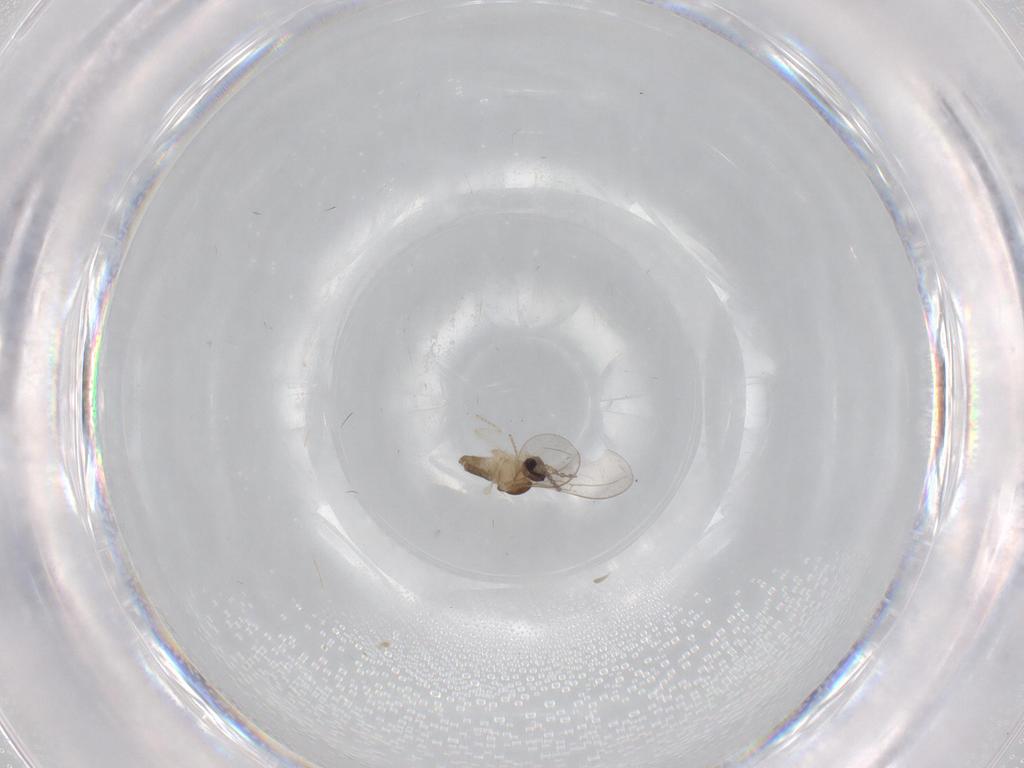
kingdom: Animalia
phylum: Arthropoda
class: Insecta
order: Diptera
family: Cecidomyiidae
